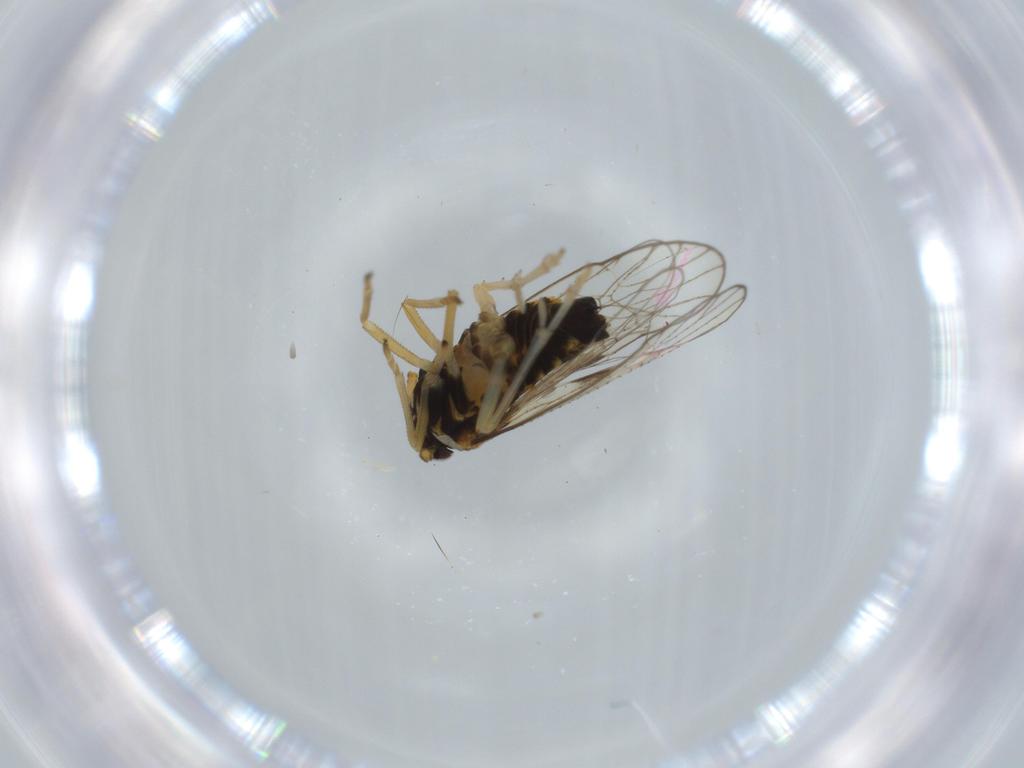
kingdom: Animalia
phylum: Arthropoda
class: Insecta
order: Hemiptera
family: Aleyrodidae
